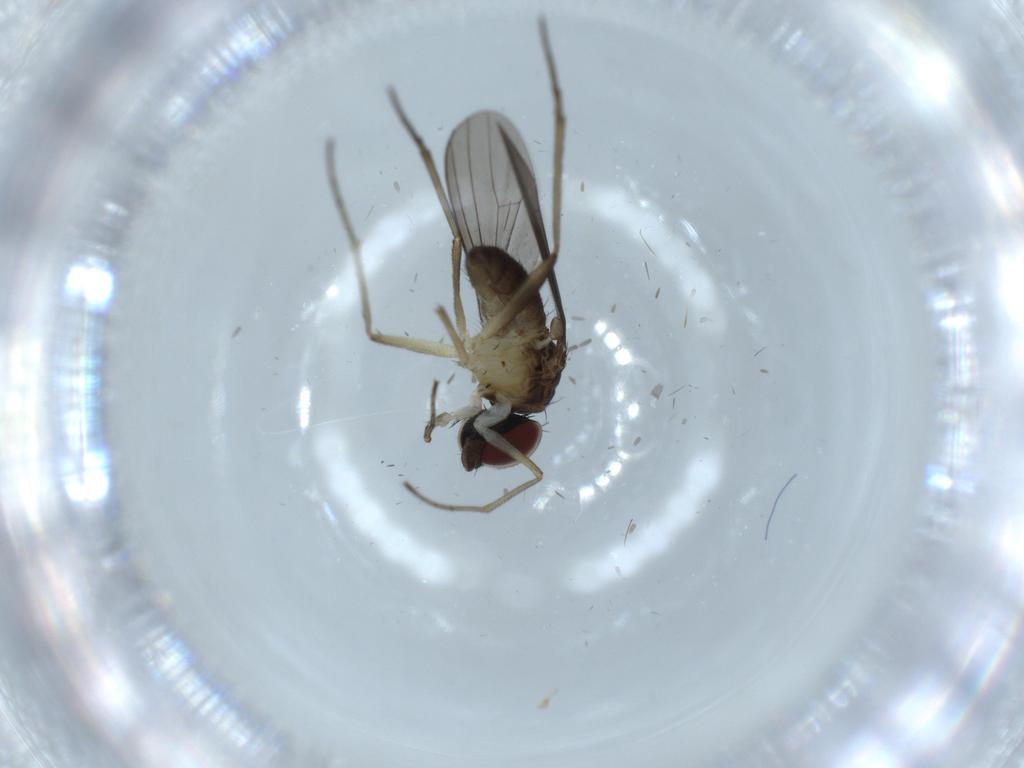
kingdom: Animalia
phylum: Arthropoda
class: Insecta
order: Diptera
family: Dolichopodidae
